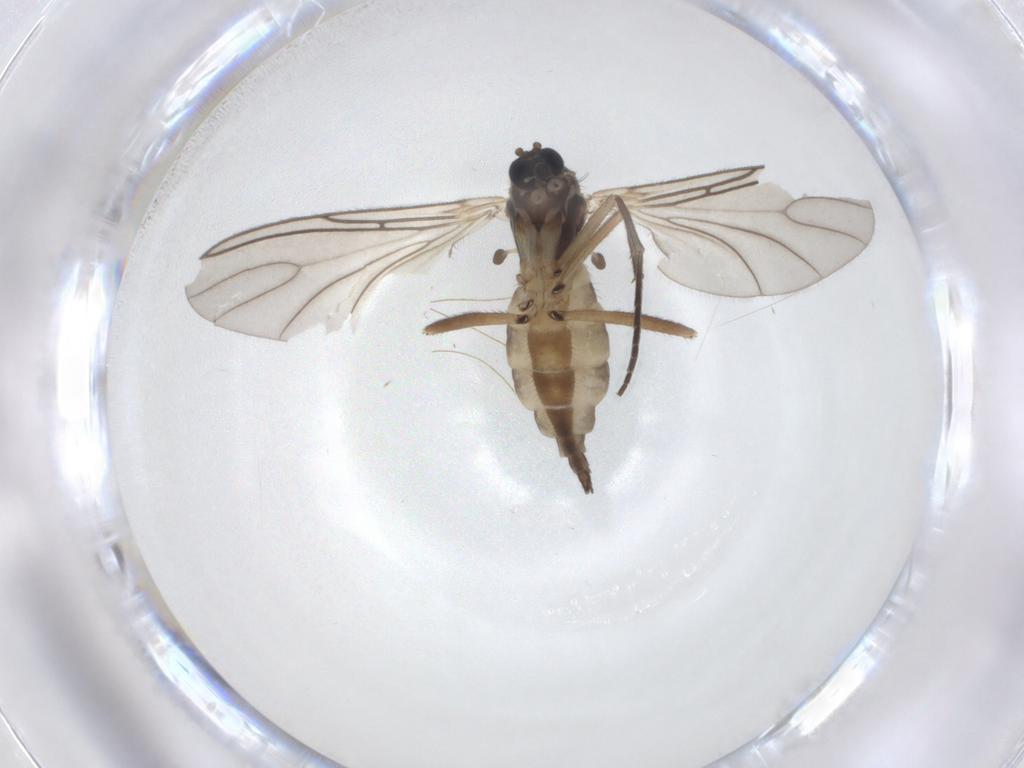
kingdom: Animalia
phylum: Arthropoda
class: Insecta
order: Diptera
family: Sciaridae
